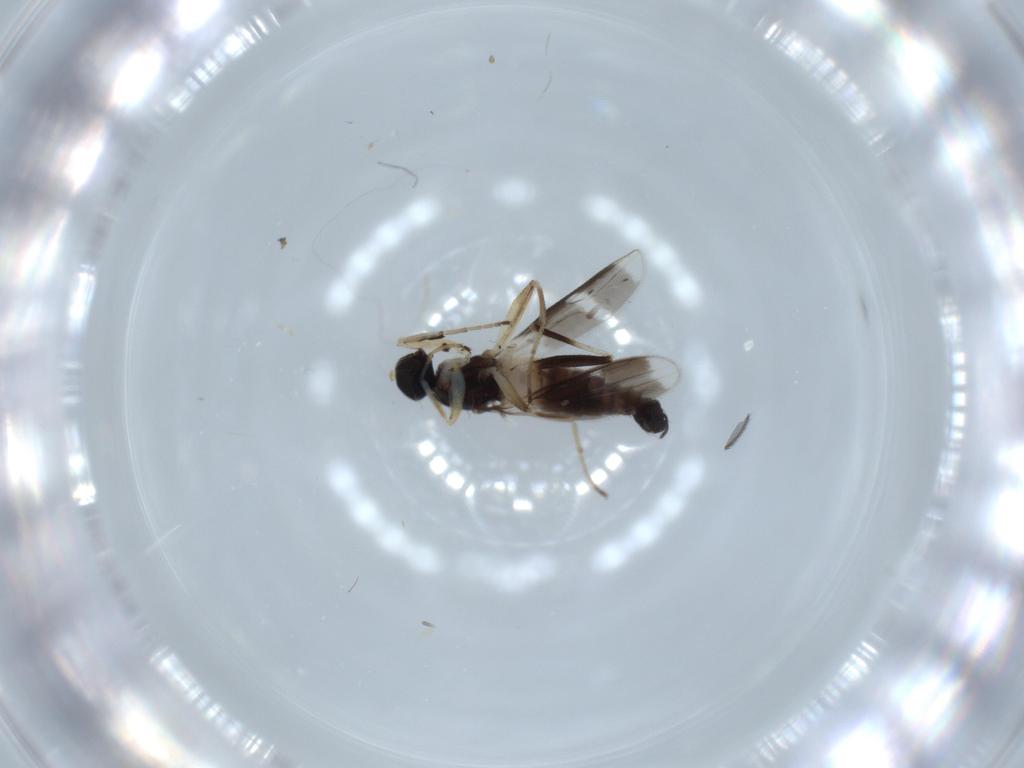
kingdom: Animalia
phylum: Arthropoda
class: Insecta
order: Diptera
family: Hybotidae
